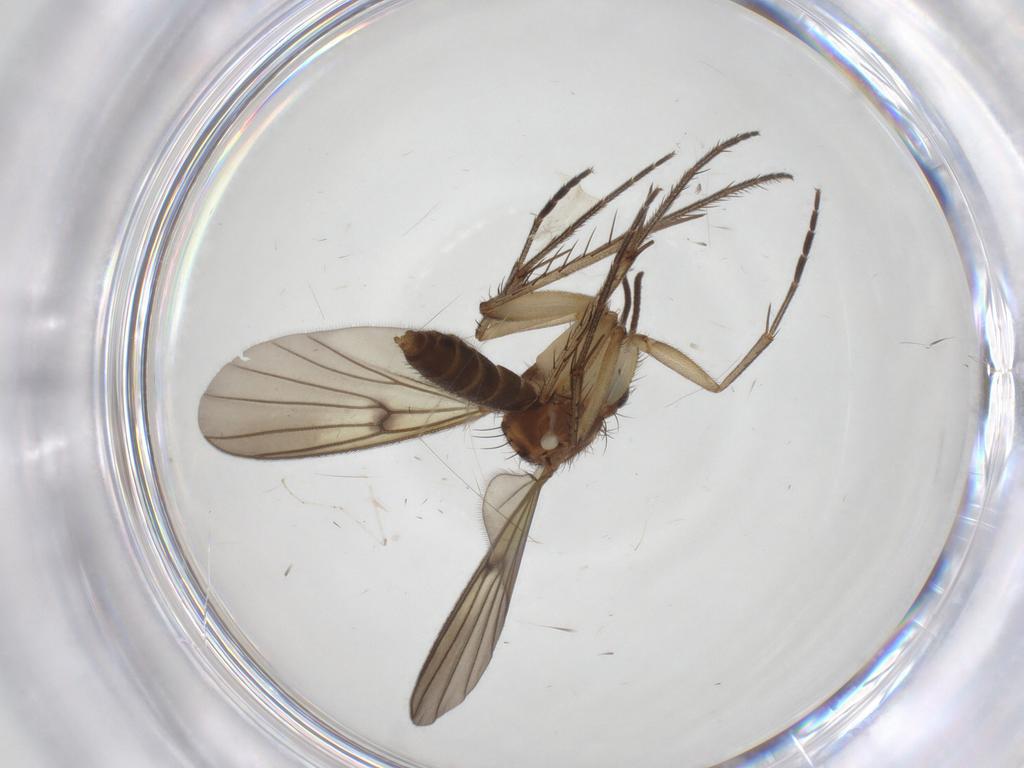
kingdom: Animalia
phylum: Arthropoda
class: Insecta
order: Diptera
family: Mycetophilidae
